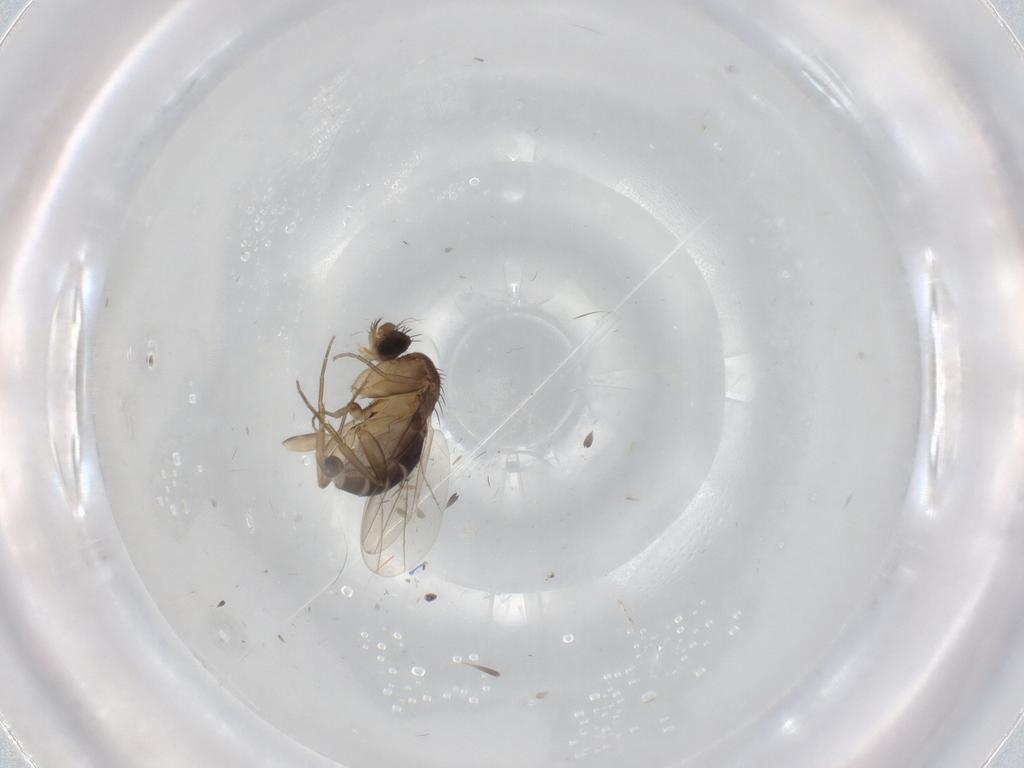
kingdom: Animalia
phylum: Arthropoda
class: Insecta
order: Diptera
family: Phoridae
